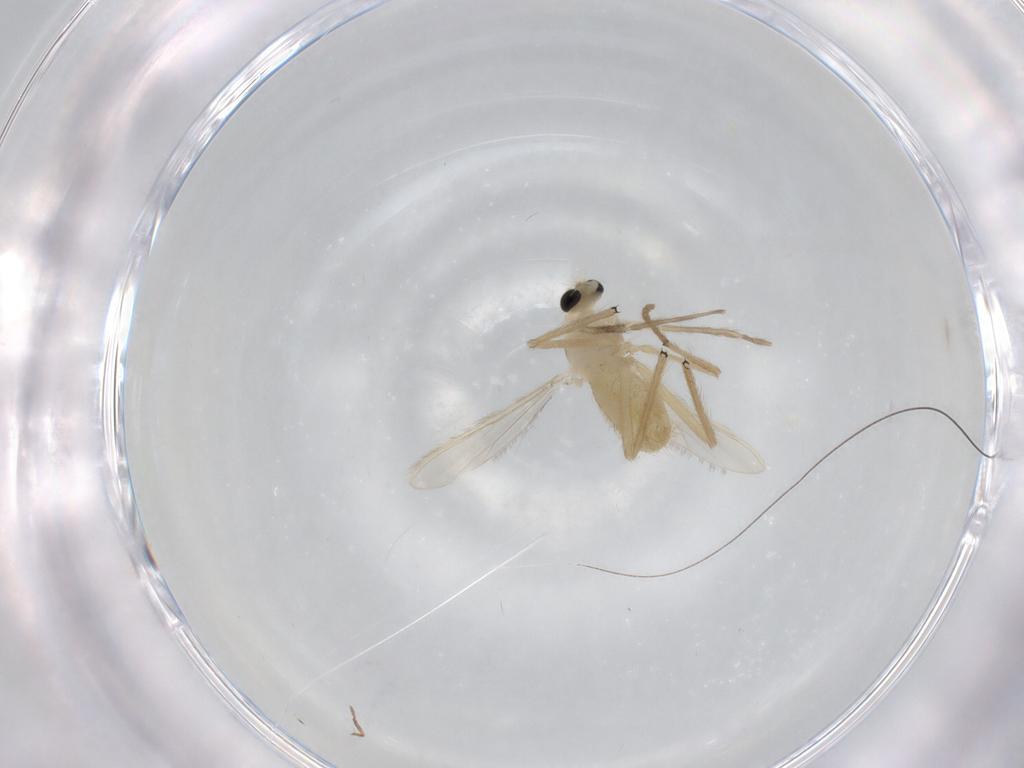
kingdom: Animalia
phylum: Arthropoda
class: Insecta
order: Diptera
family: Chironomidae
